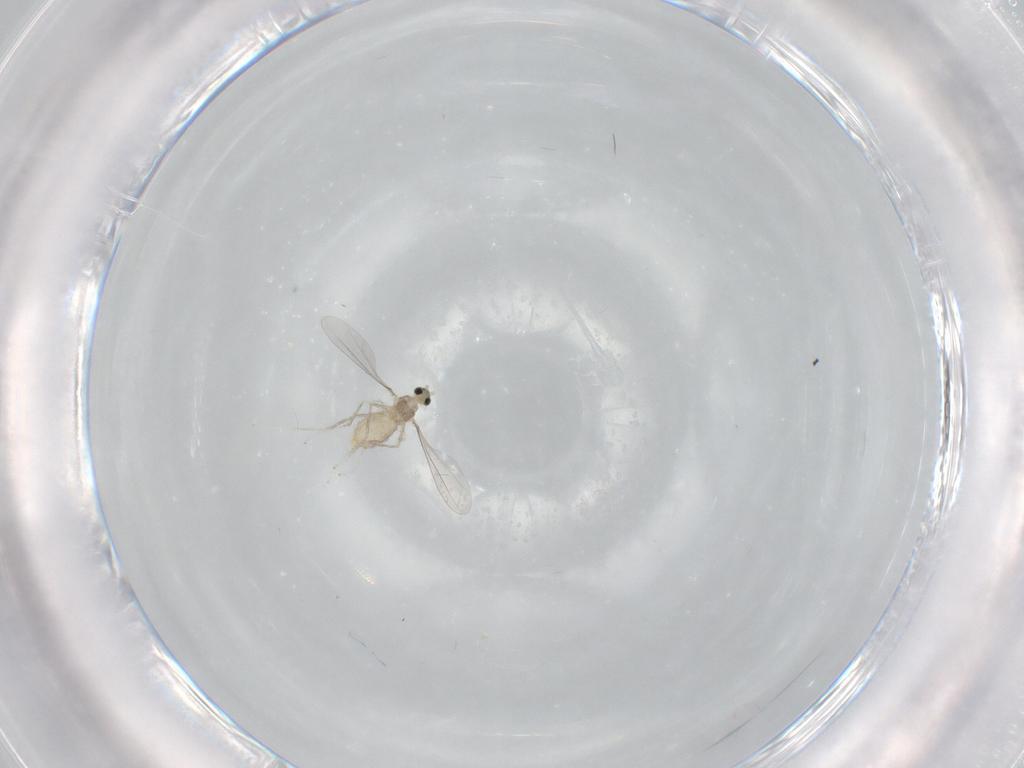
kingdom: Animalia
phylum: Arthropoda
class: Insecta
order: Diptera
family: Cecidomyiidae
